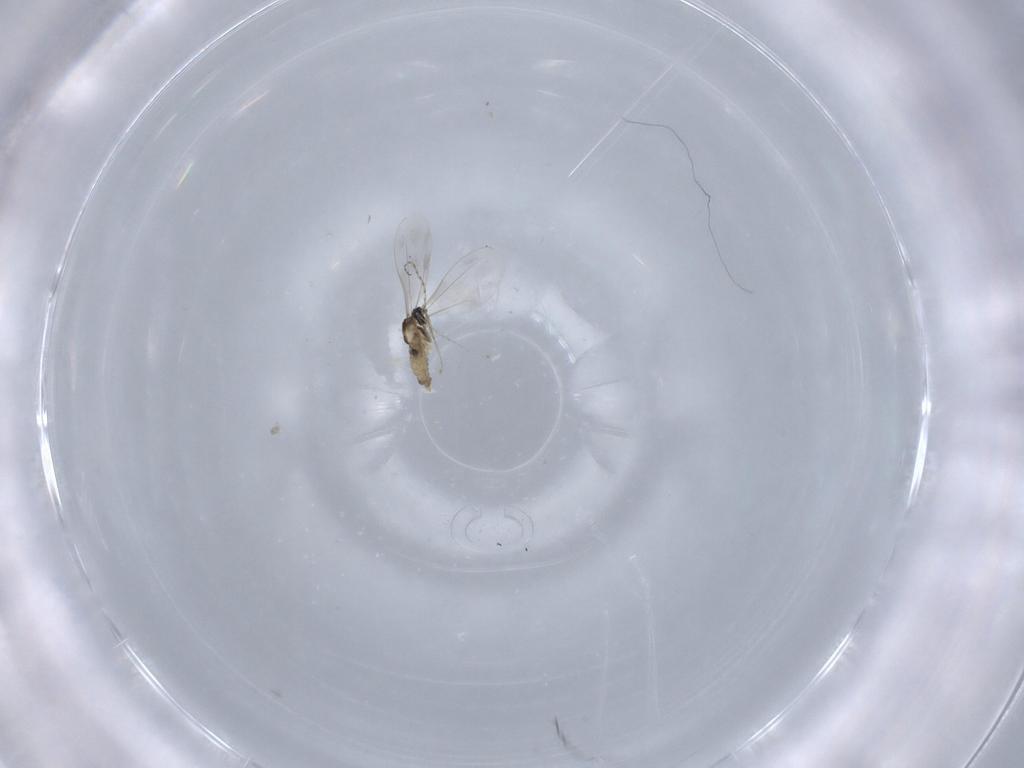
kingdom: Animalia
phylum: Arthropoda
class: Insecta
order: Diptera
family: Cecidomyiidae
